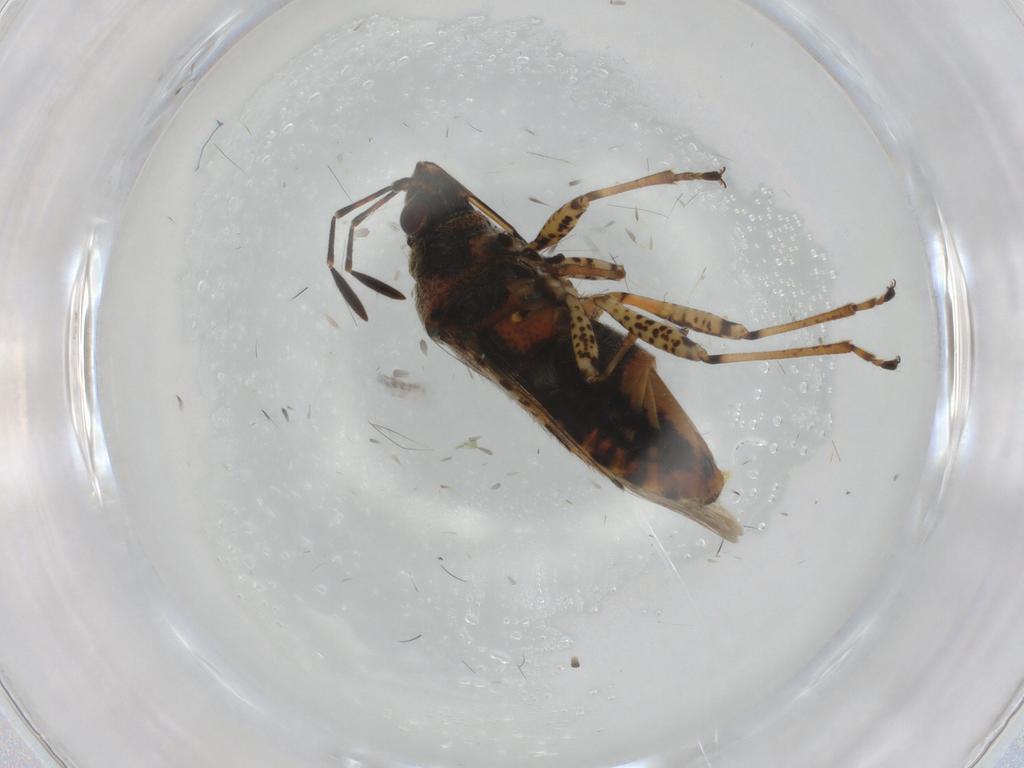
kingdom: Animalia
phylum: Arthropoda
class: Insecta
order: Hemiptera
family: Lygaeidae
